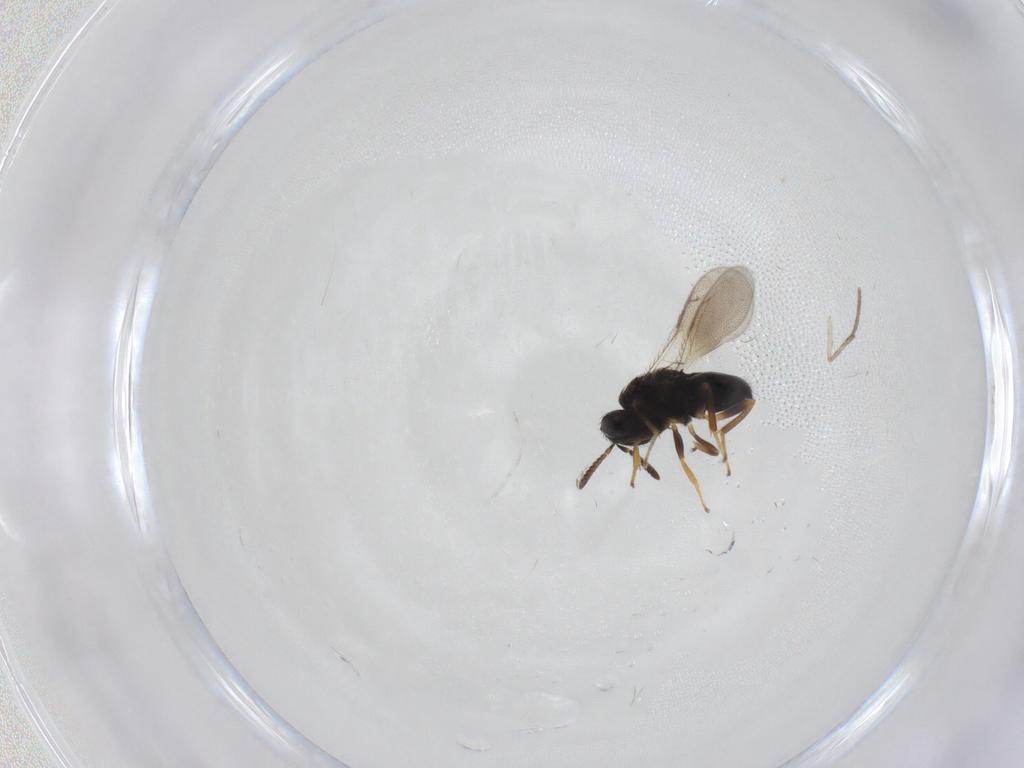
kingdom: Animalia
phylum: Arthropoda
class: Insecta
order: Hymenoptera
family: Pteromalidae
